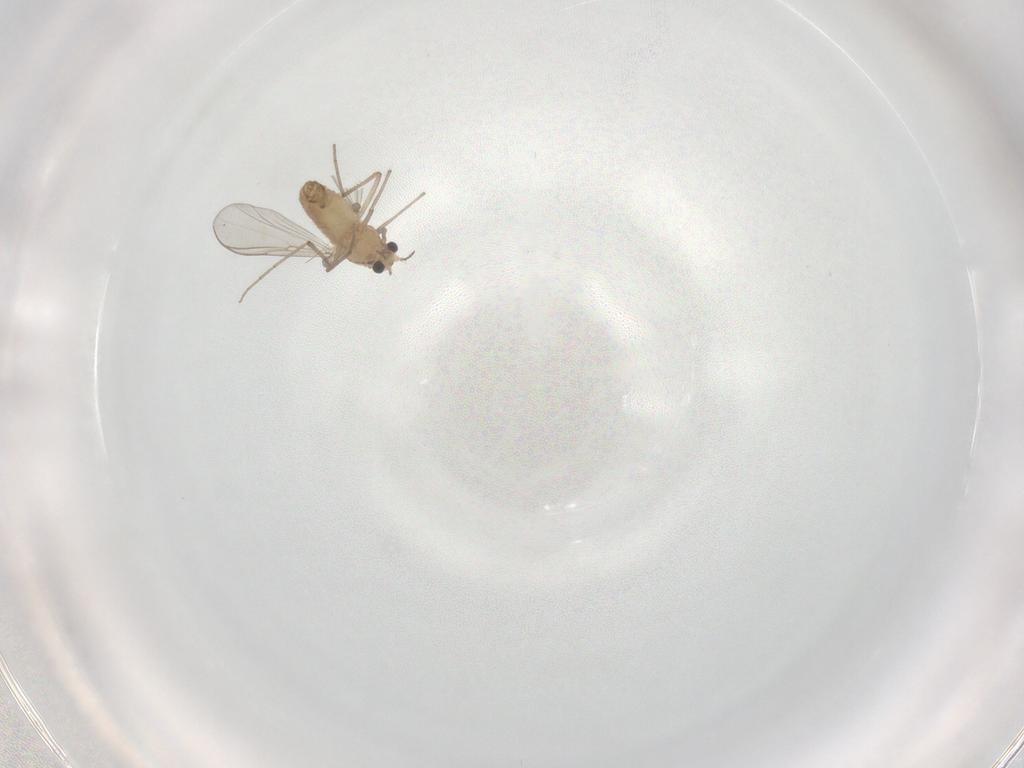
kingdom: Animalia
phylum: Arthropoda
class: Insecta
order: Diptera
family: Chironomidae
